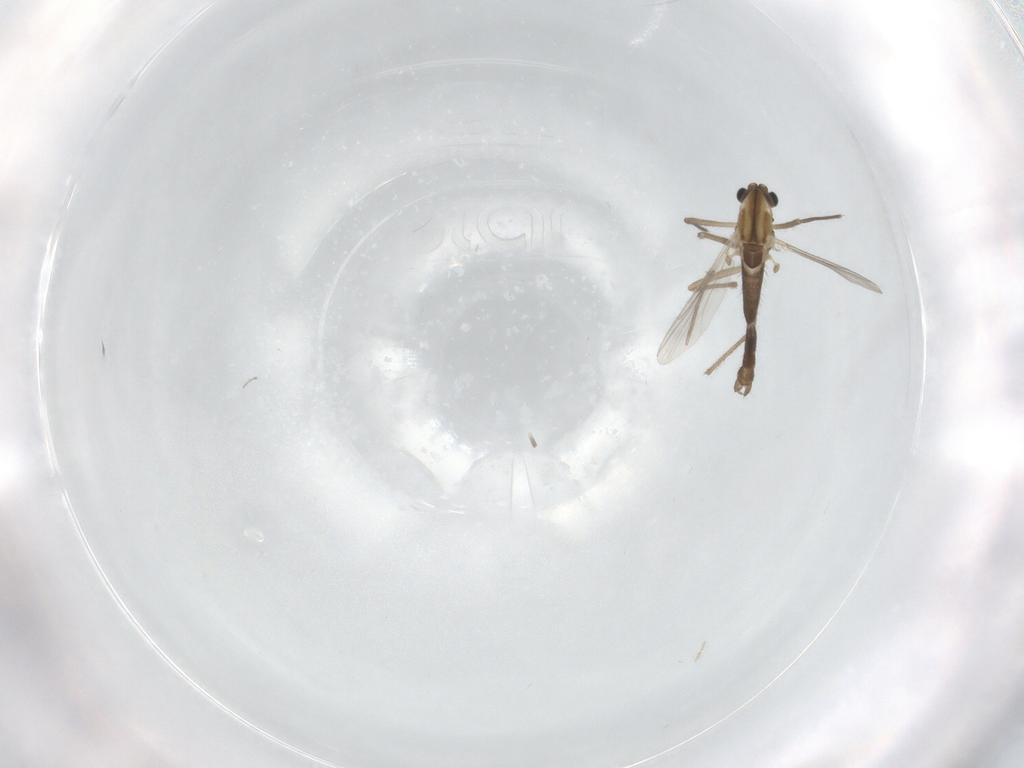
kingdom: Animalia
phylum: Arthropoda
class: Insecta
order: Diptera
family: Chironomidae
